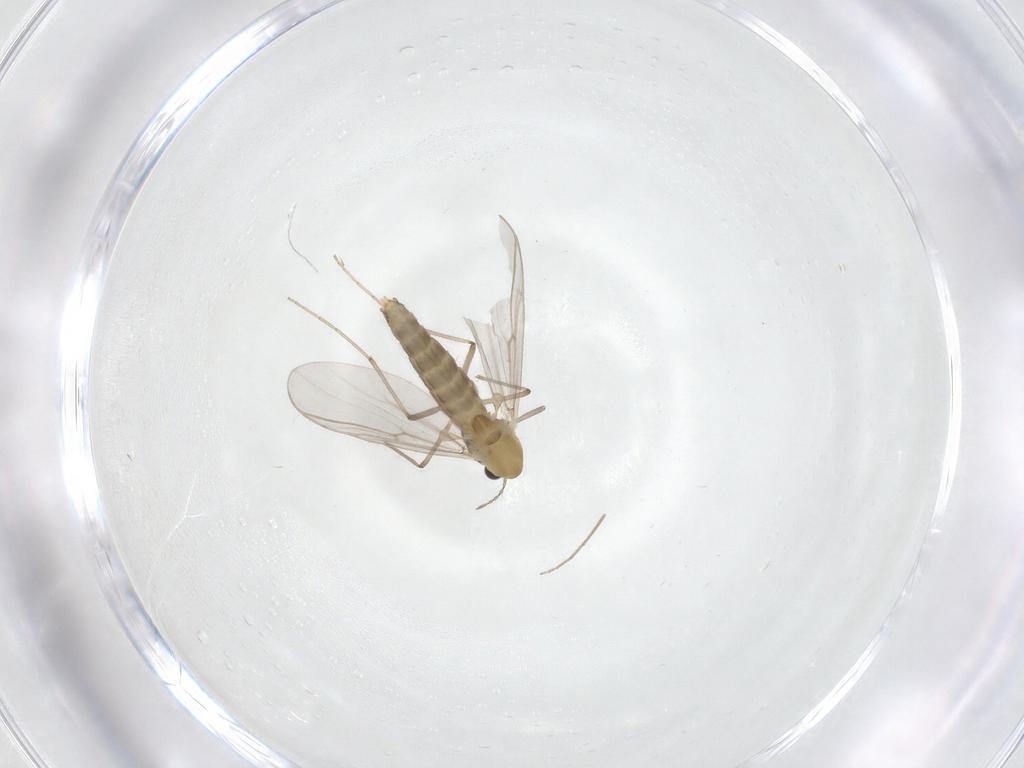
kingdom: Animalia
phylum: Arthropoda
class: Insecta
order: Diptera
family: Chironomidae
